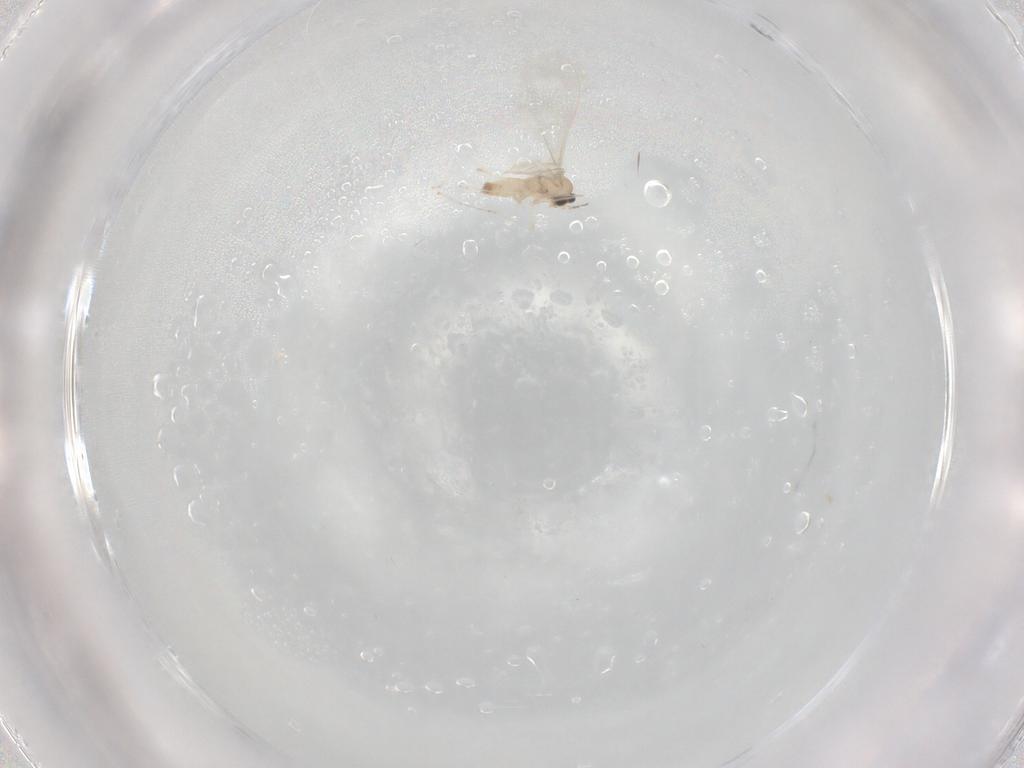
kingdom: Animalia
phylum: Arthropoda
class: Insecta
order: Diptera
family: Cecidomyiidae
